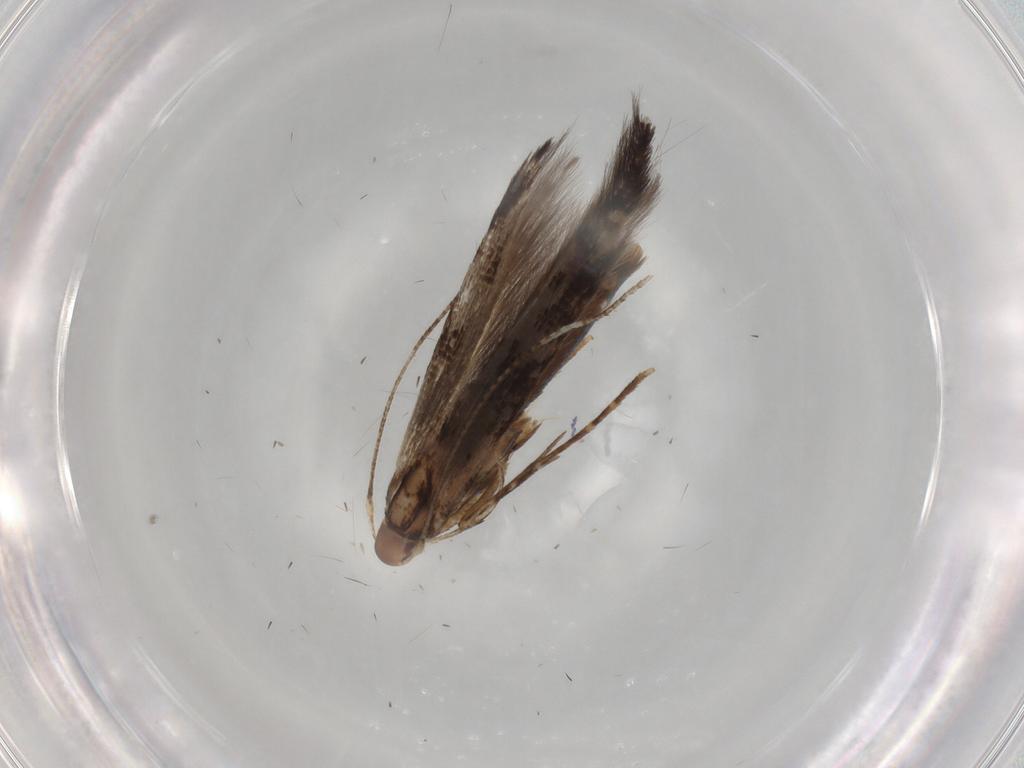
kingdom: Animalia
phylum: Arthropoda
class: Insecta
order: Lepidoptera
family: Cosmopterigidae
